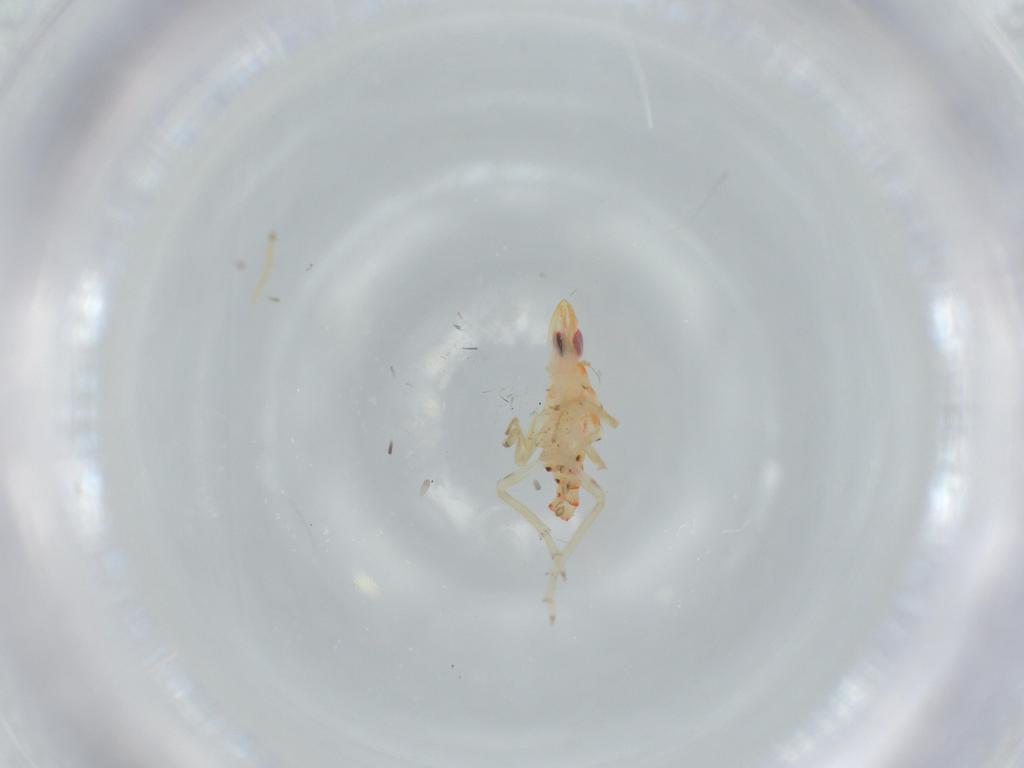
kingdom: Animalia
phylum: Arthropoda
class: Insecta
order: Hemiptera
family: Tropiduchidae
